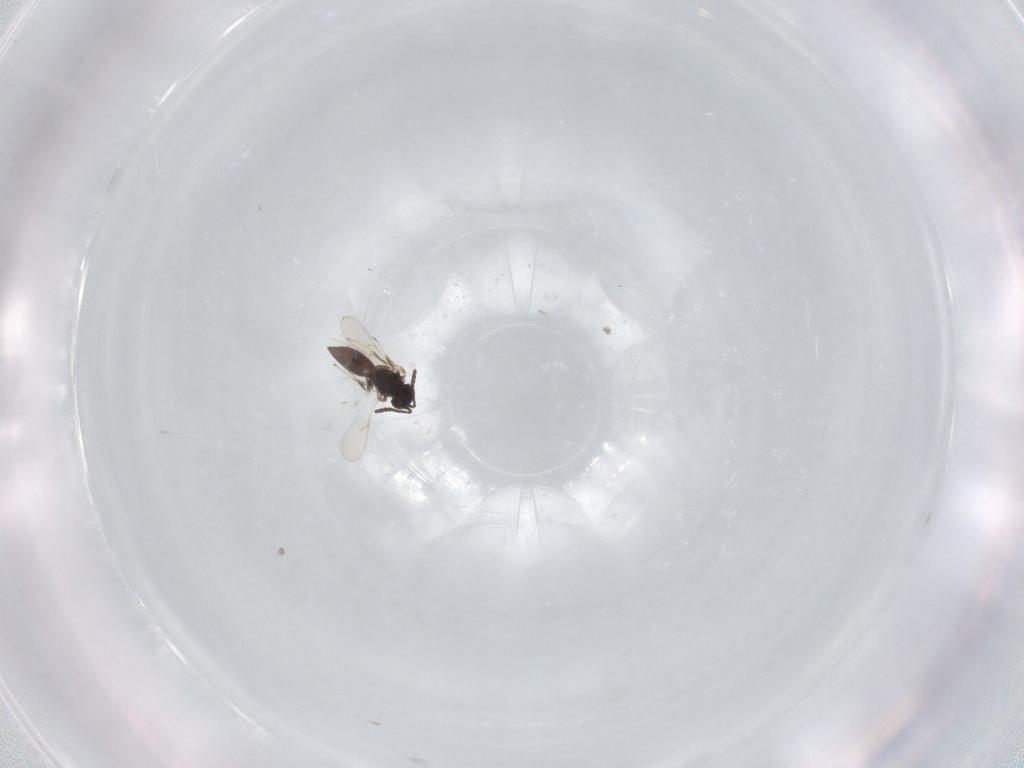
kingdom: Animalia
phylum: Arthropoda
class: Insecta
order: Hymenoptera
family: Scelionidae
